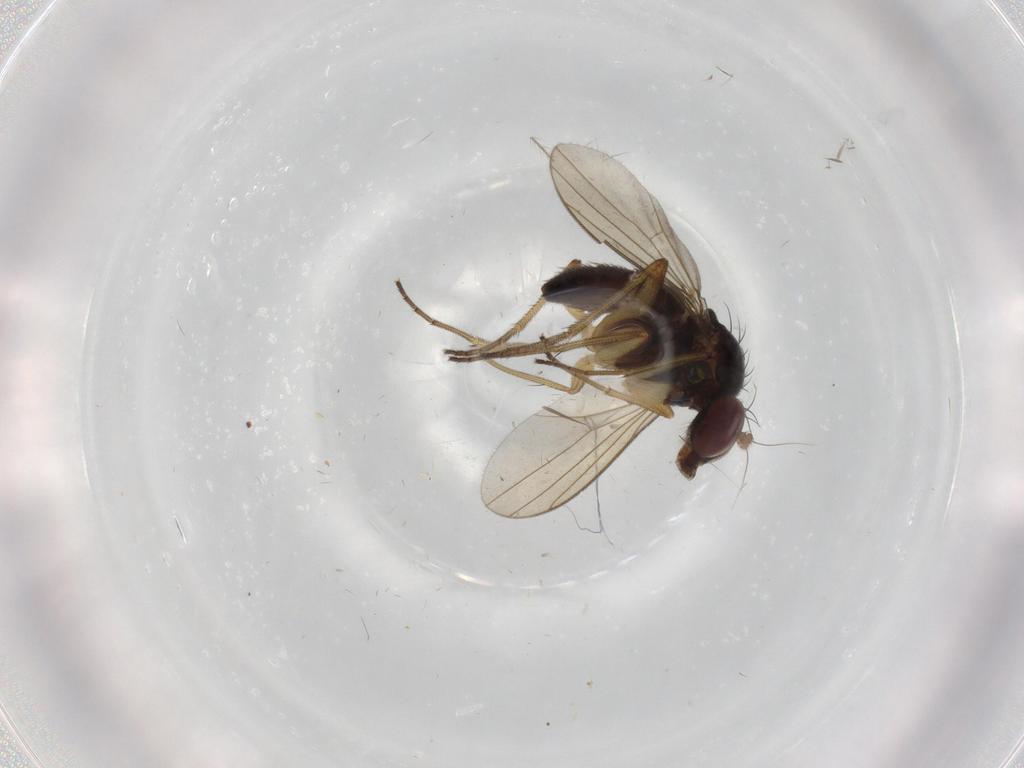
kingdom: Animalia
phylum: Arthropoda
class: Insecta
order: Diptera
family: Dolichopodidae
